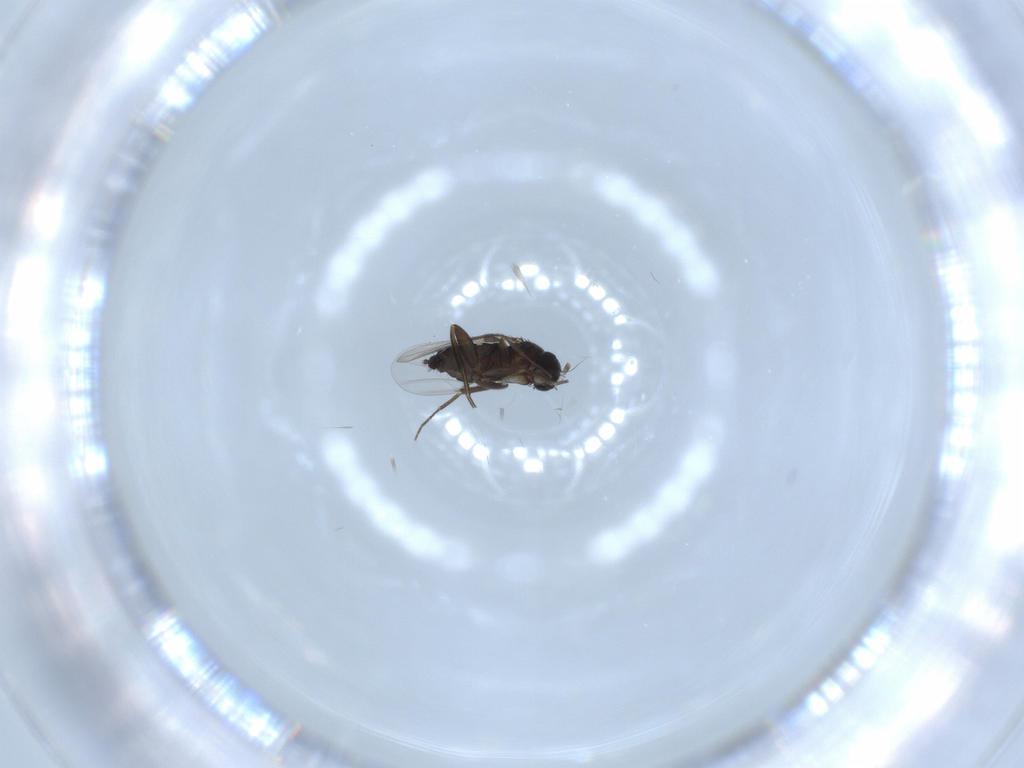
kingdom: Animalia
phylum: Arthropoda
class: Insecta
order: Diptera
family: Phoridae
